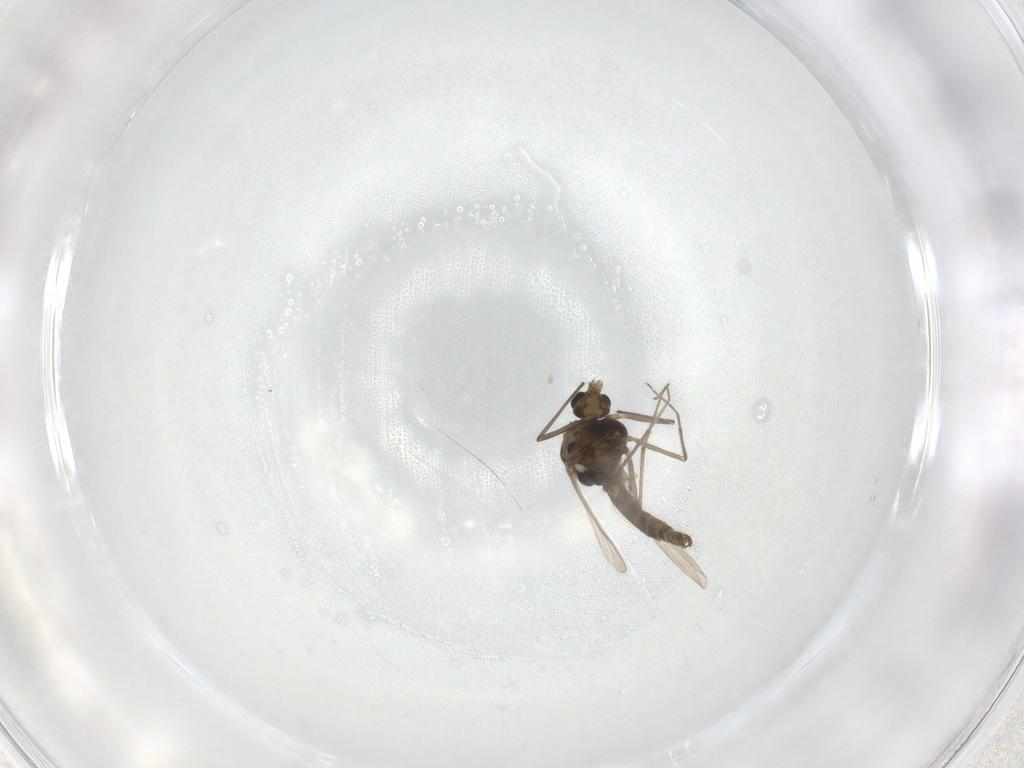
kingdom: Animalia
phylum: Arthropoda
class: Insecta
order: Diptera
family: Chironomidae
